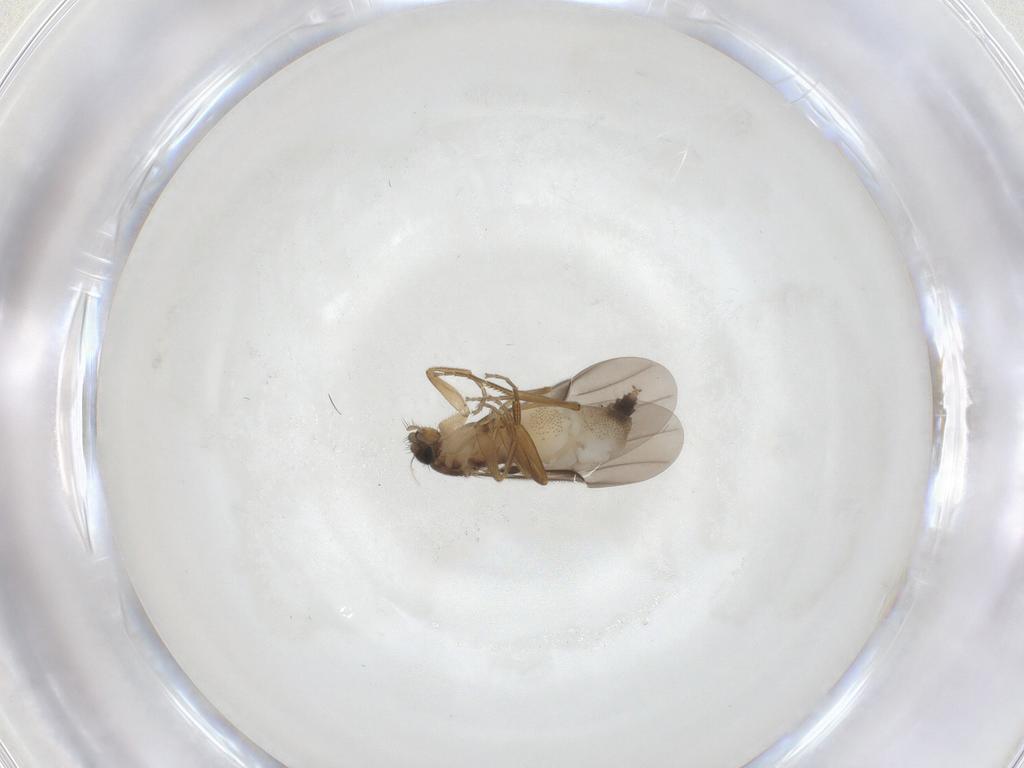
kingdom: Animalia
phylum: Arthropoda
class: Insecta
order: Diptera
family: Phoridae
